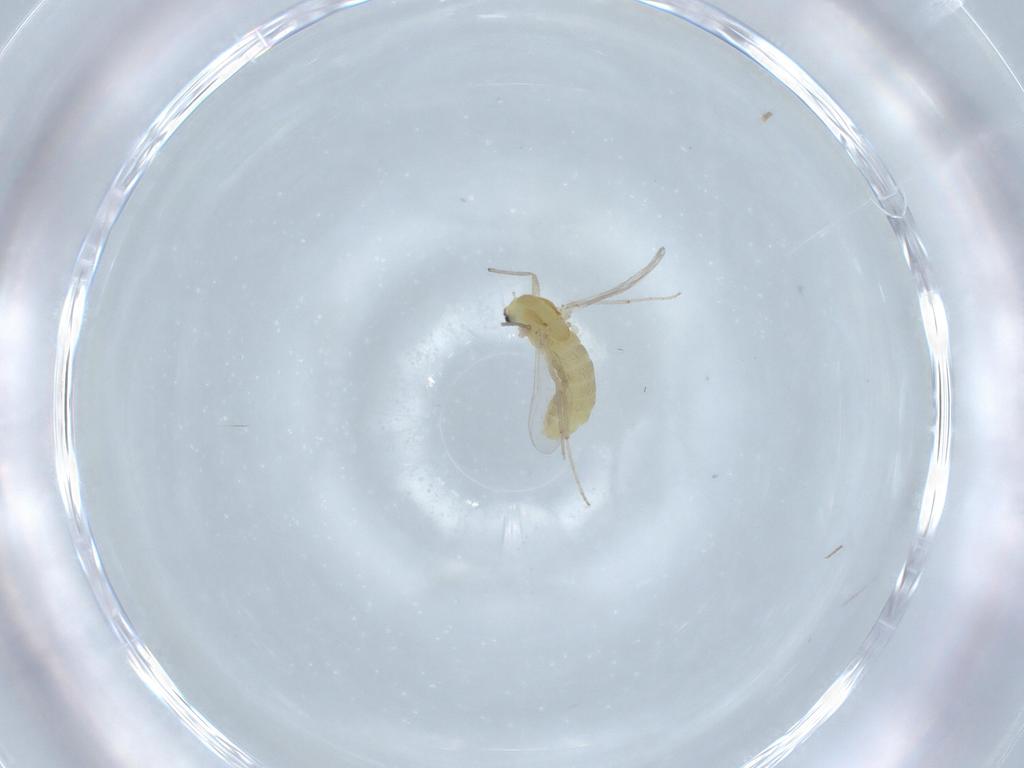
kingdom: Animalia
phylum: Arthropoda
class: Insecta
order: Diptera
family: Chironomidae
